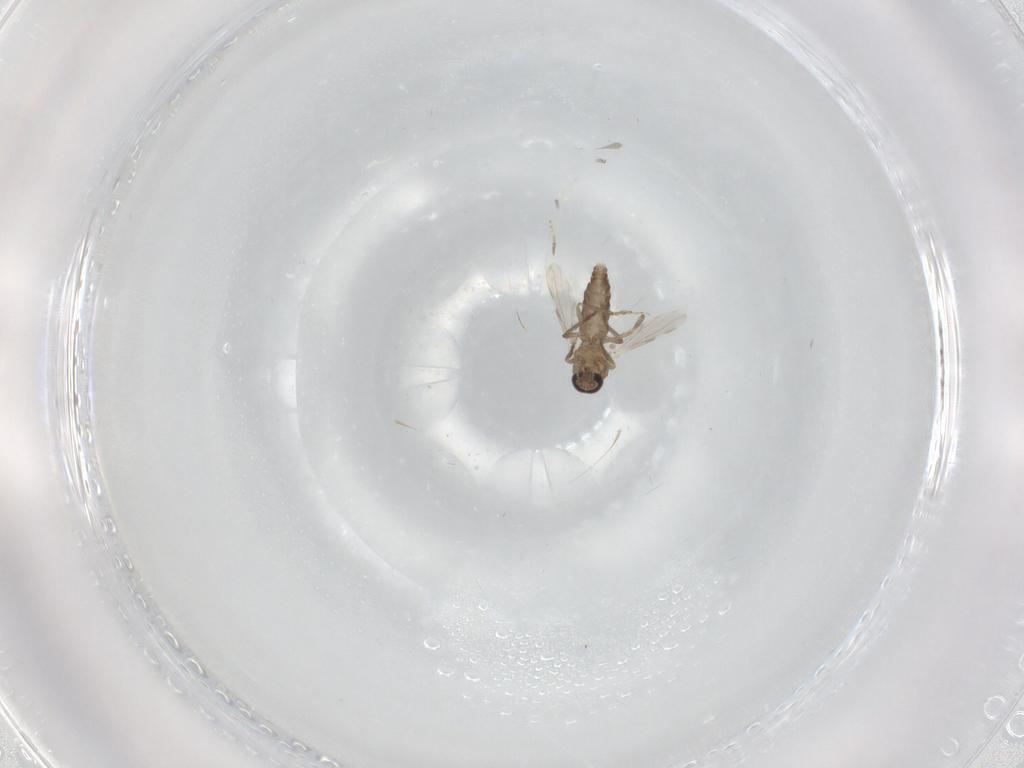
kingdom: Animalia
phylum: Arthropoda
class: Insecta
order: Diptera
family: Ceratopogonidae
